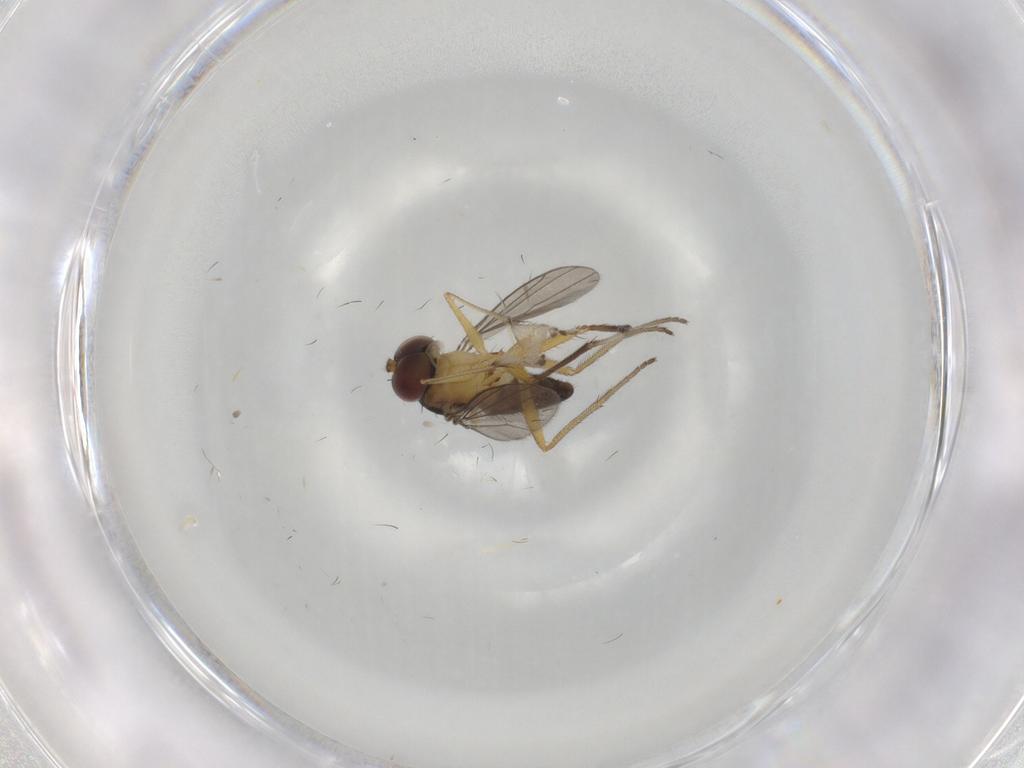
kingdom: Animalia
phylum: Arthropoda
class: Insecta
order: Diptera
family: Dolichopodidae
